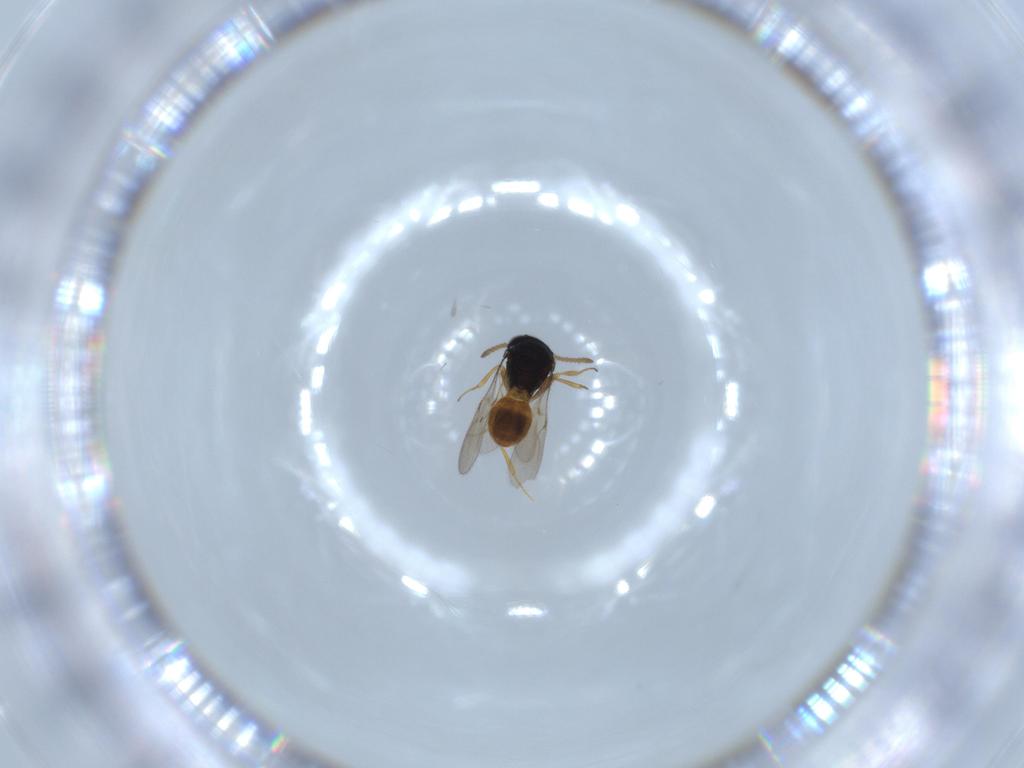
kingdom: Animalia
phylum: Arthropoda
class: Insecta
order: Hymenoptera
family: Scelionidae
